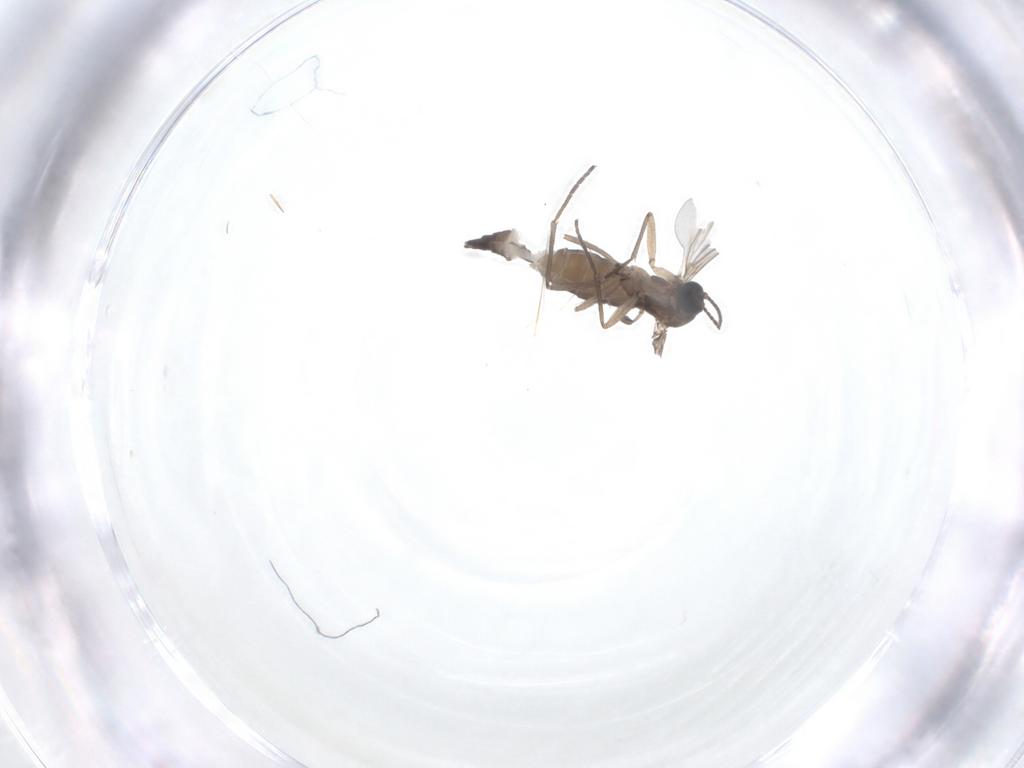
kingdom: Animalia
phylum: Arthropoda
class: Insecta
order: Diptera
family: Sciaridae
